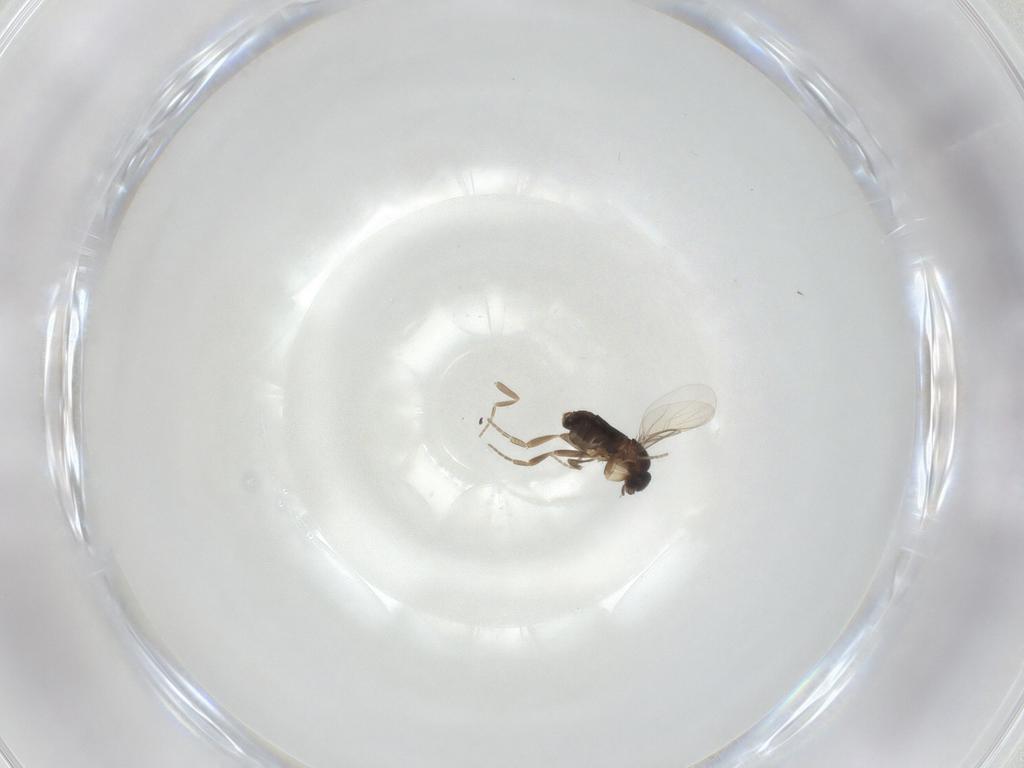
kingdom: Animalia
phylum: Arthropoda
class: Insecta
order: Diptera
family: Phoridae
